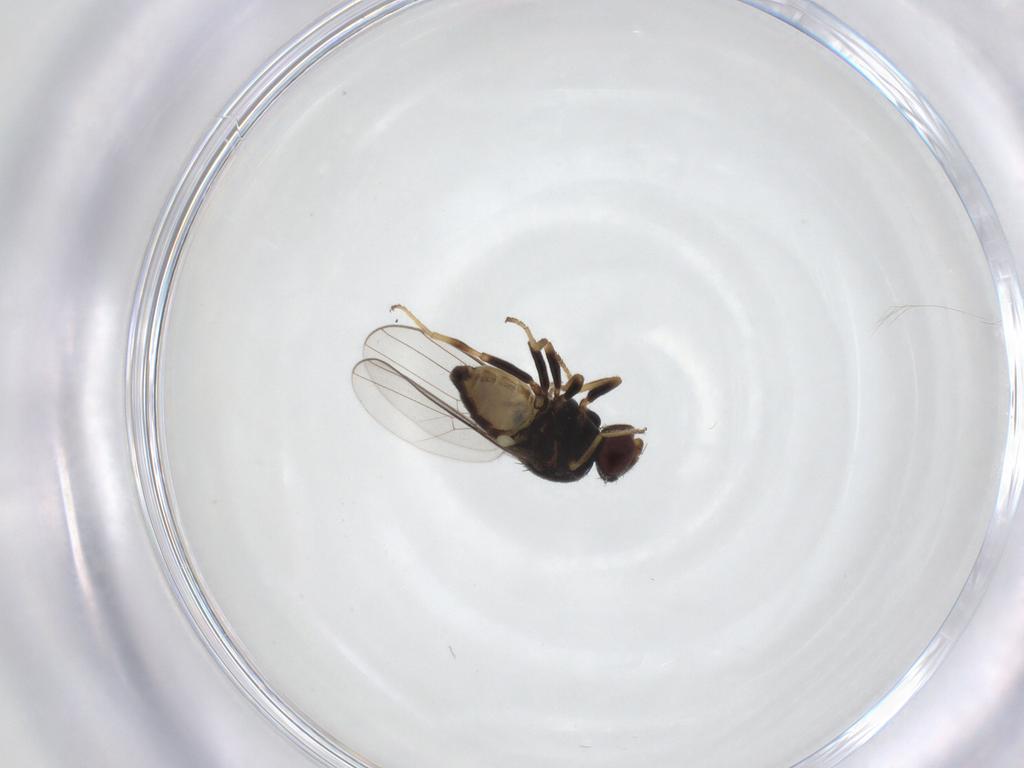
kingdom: Animalia
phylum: Arthropoda
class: Insecta
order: Diptera
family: Chloropidae
